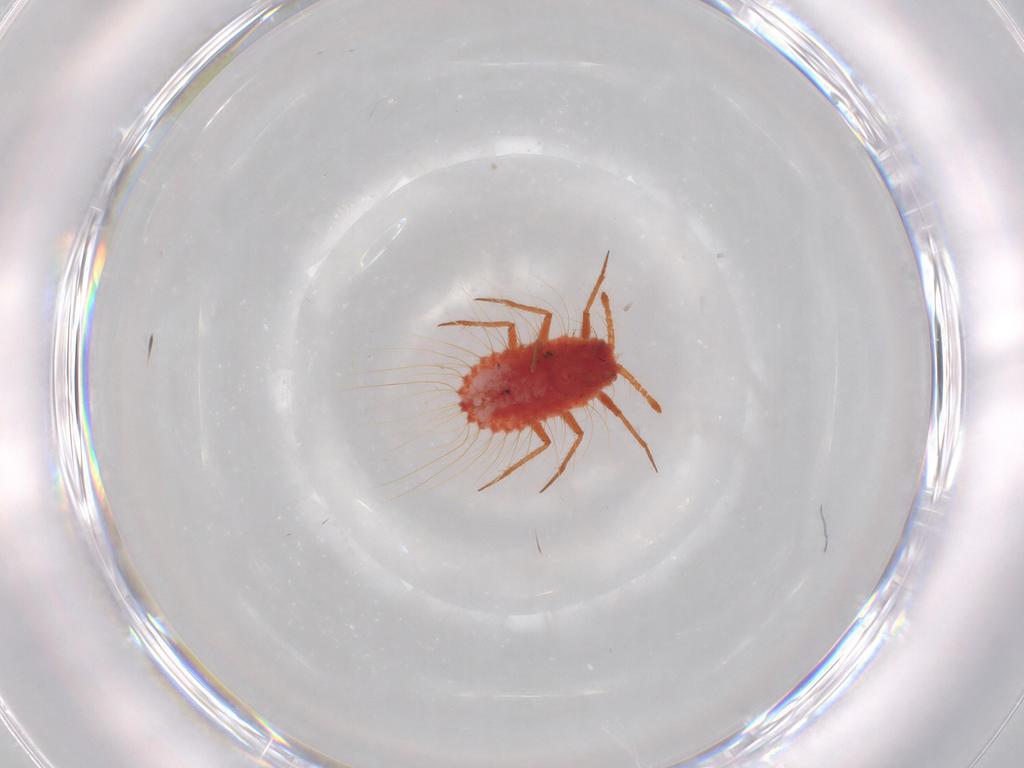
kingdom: Animalia
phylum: Arthropoda
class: Insecta
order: Hemiptera
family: Monophlebidae
